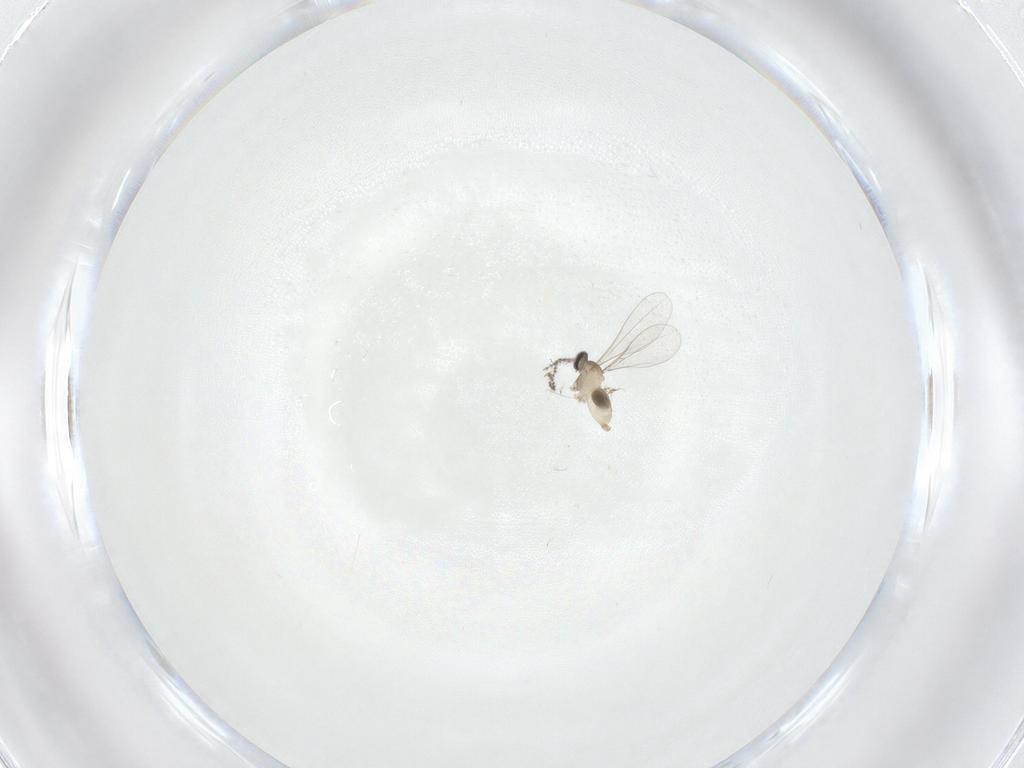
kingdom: Animalia
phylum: Arthropoda
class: Insecta
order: Diptera
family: Cecidomyiidae
